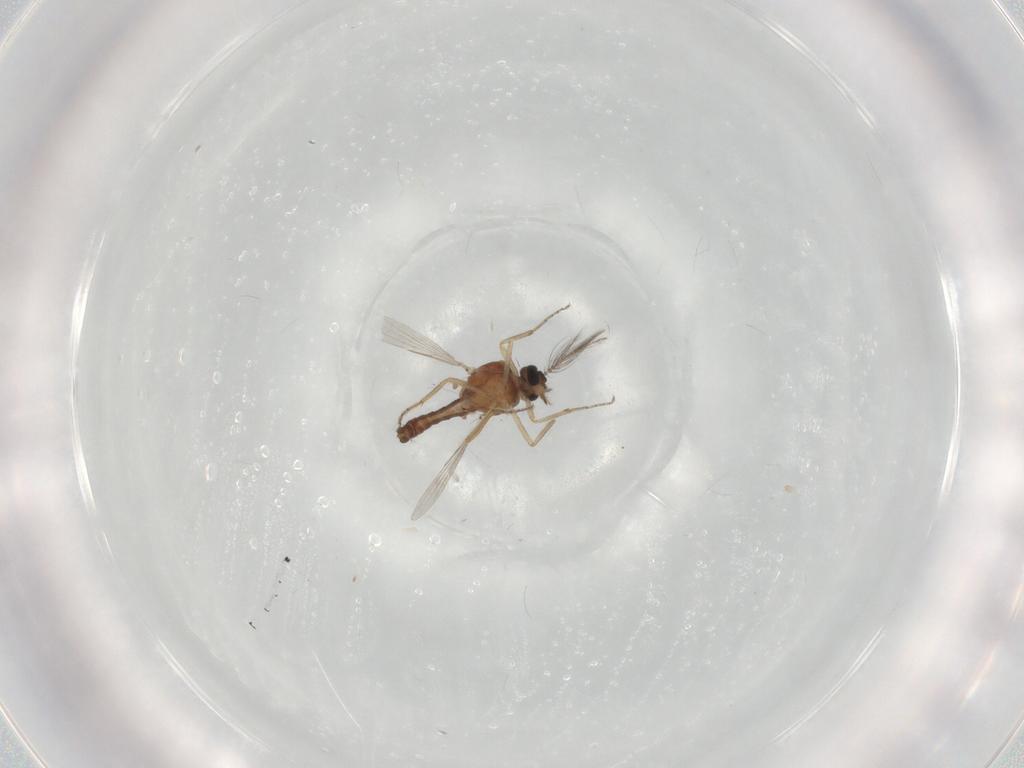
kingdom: Animalia
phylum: Arthropoda
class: Insecta
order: Diptera
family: Ceratopogonidae
